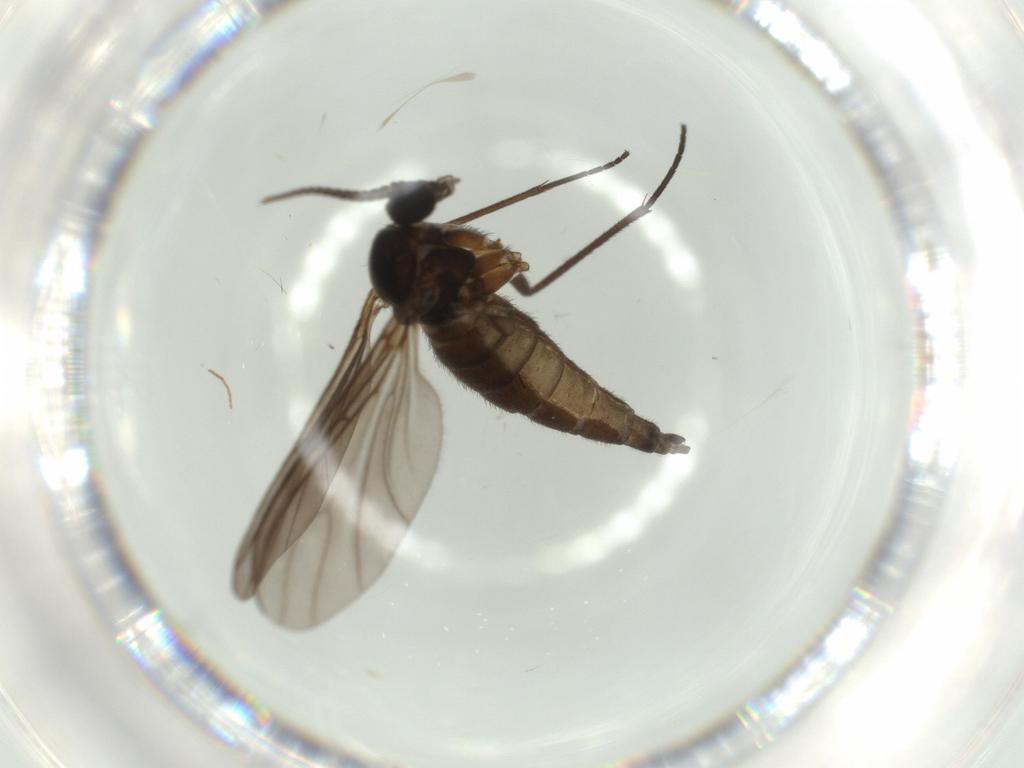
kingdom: Animalia
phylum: Arthropoda
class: Insecta
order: Diptera
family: Sciaridae
